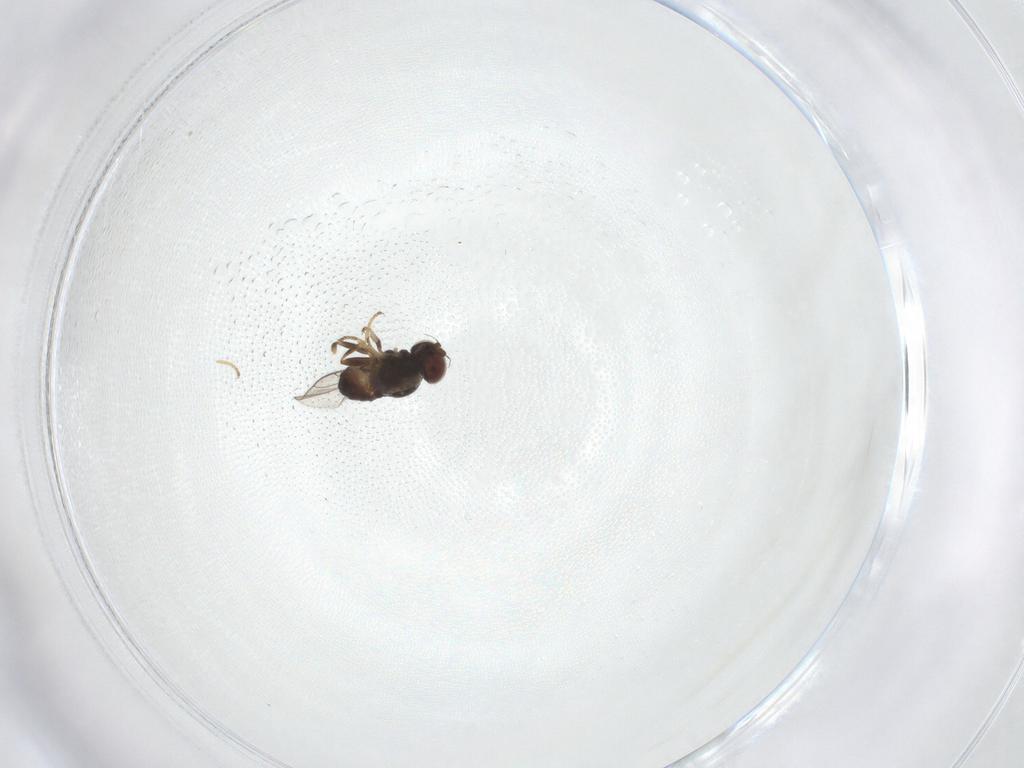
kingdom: Animalia
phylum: Arthropoda
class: Insecta
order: Diptera
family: Chloropidae
